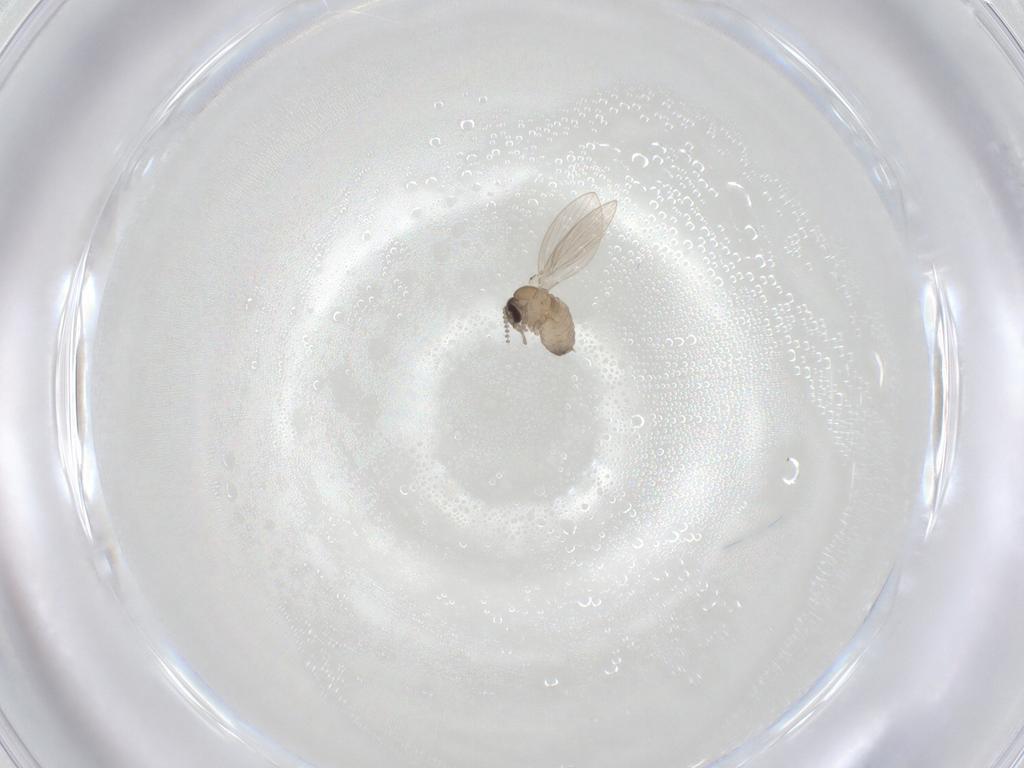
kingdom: Animalia
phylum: Arthropoda
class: Insecta
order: Diptera
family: Psychodidae
